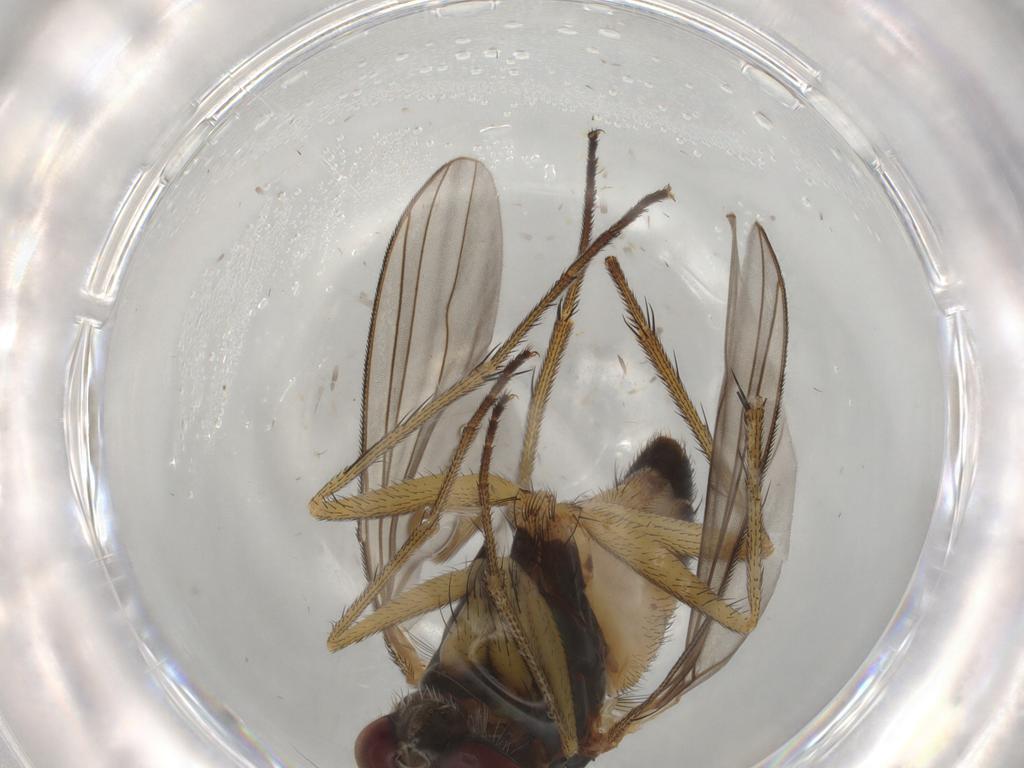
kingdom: Animalia
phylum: Arthropoda
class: Insecta
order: Diptera
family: Dolichopodidae
